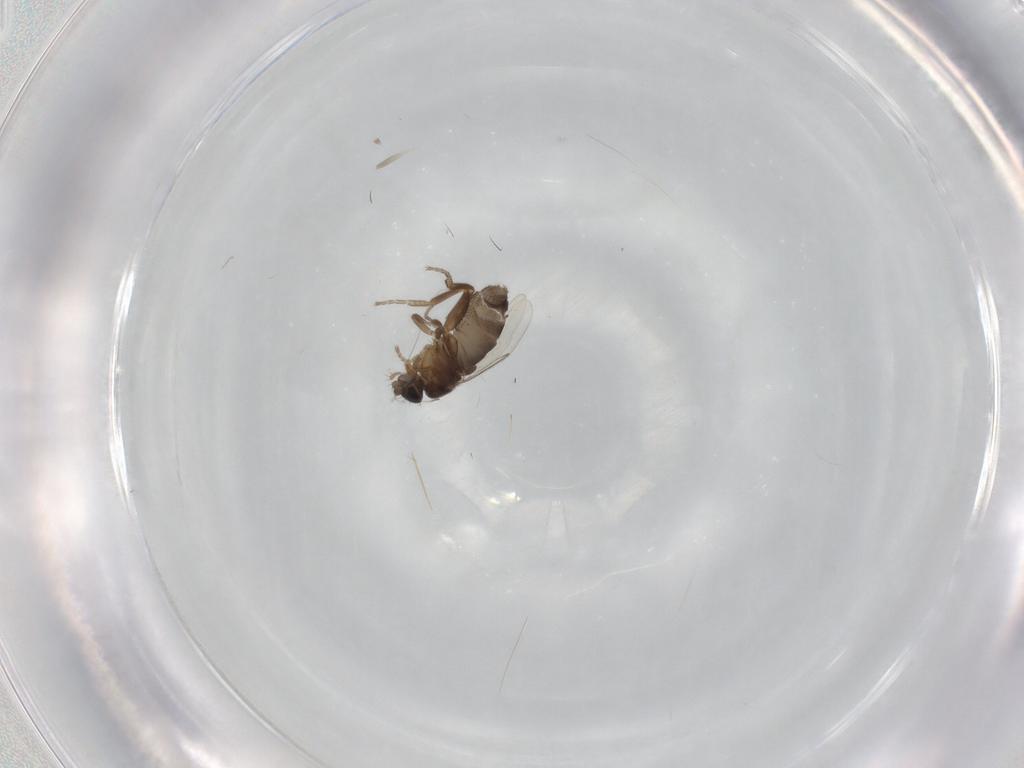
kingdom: Animalia
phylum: Arthropoda
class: Insecta
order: Diptera
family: Phoridae
